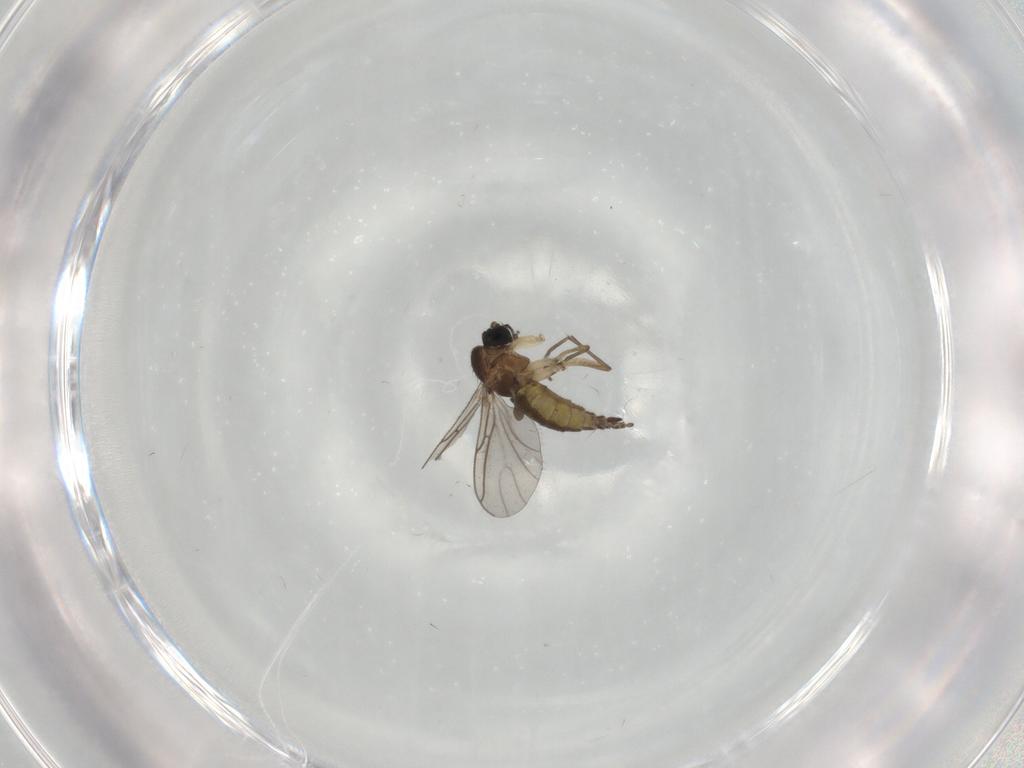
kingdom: Animalia
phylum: Arthropoda
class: Insecta
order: Diptera
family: Sciaridae
